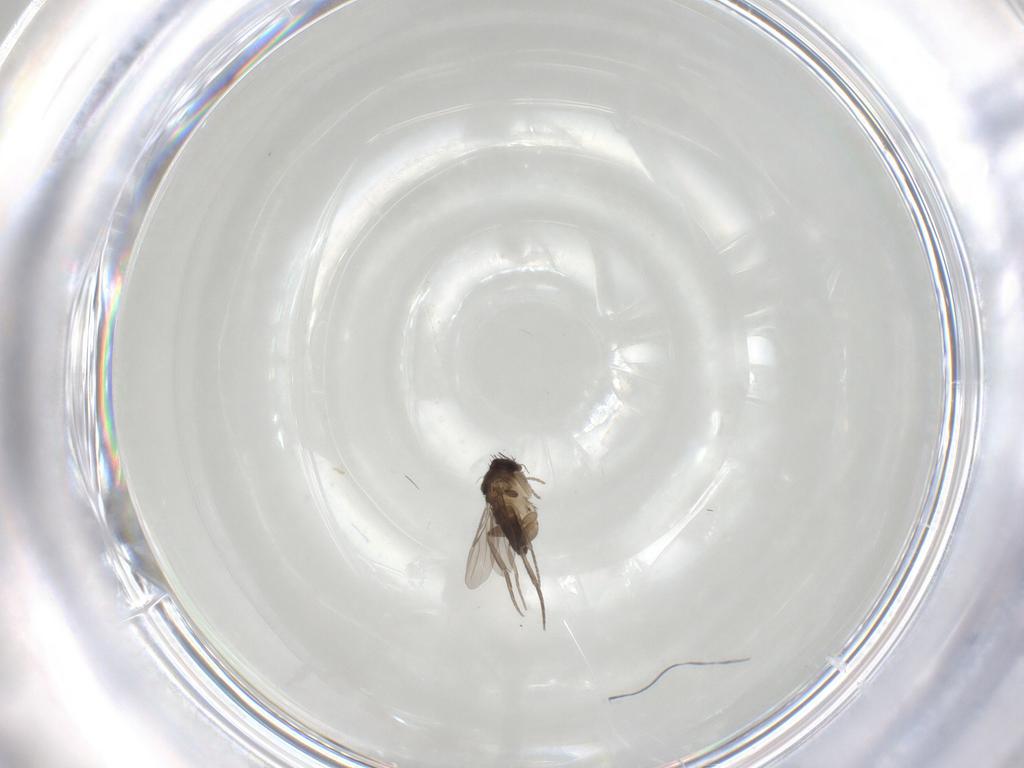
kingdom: Animalia
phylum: Arthropoda
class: Insecta
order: Diptera
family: Phoridae
